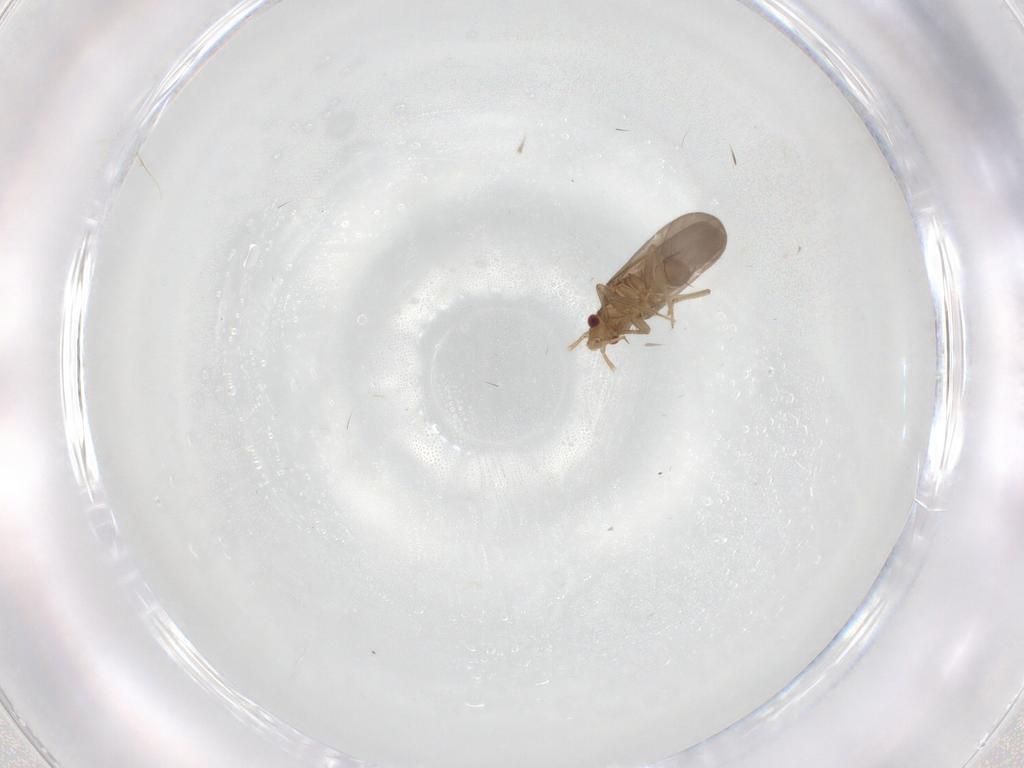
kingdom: Animalia
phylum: Arthropoda
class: Insecta
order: Hemiptera
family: Ceratocombidae
